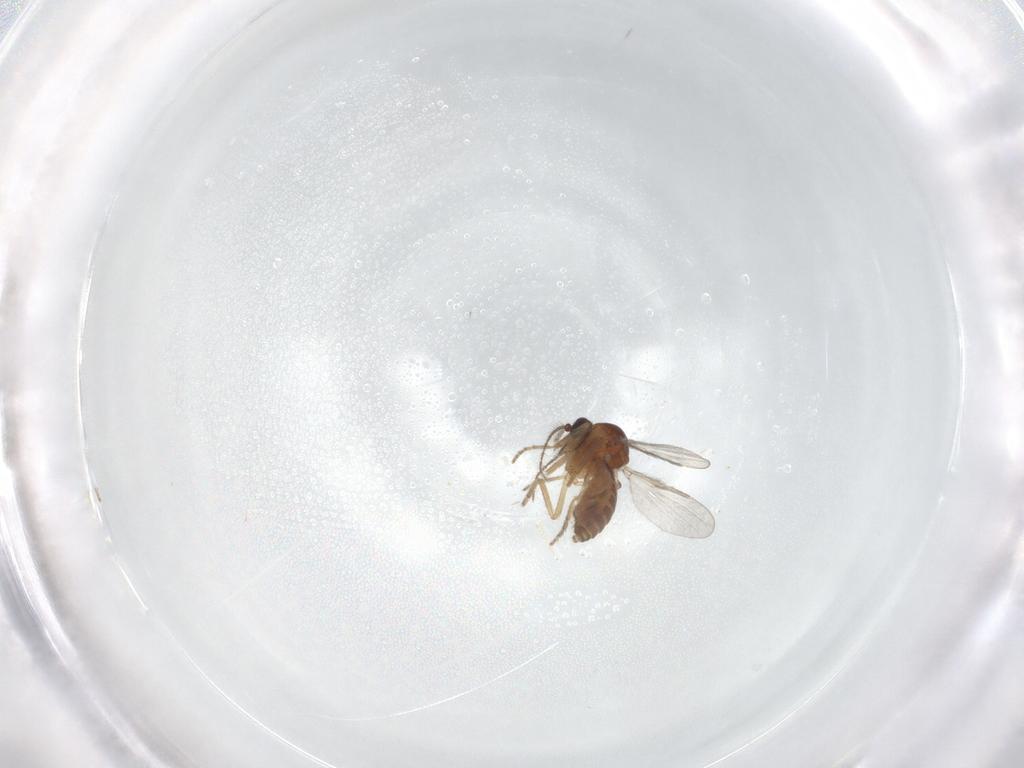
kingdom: Animalia
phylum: Arthropoda
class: Insecta
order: Diptera
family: Ceratopogonidae
